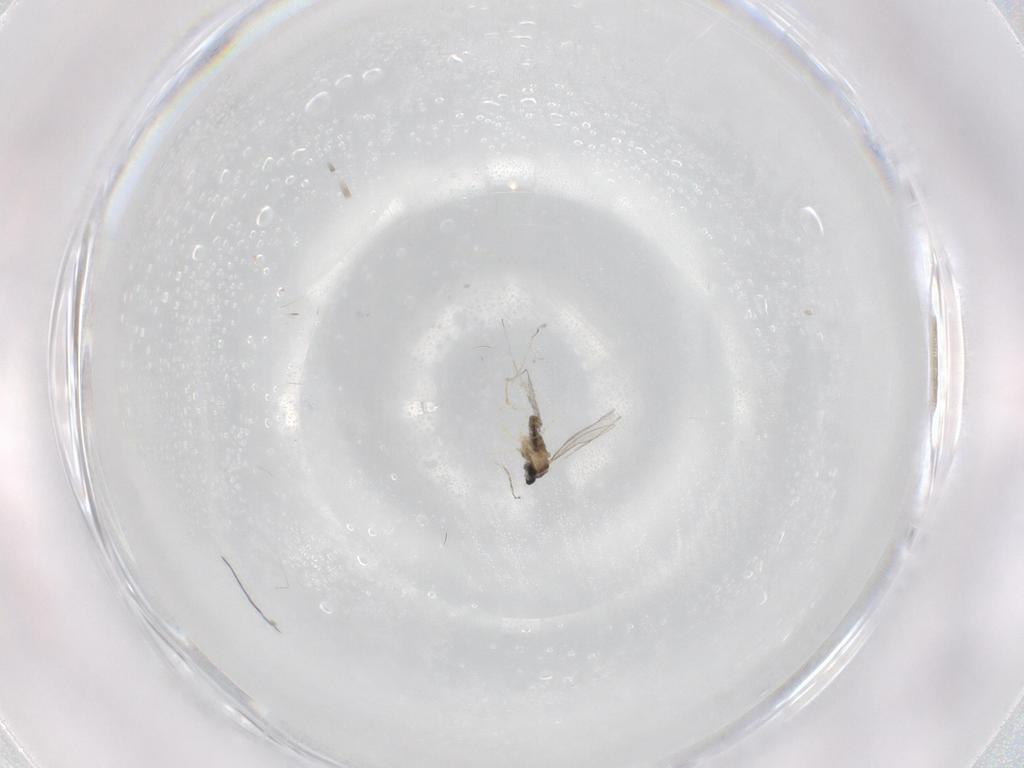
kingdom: Animalia
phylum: Arthropoda
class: Insecta
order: Diptera
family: Cecidomyiidae
